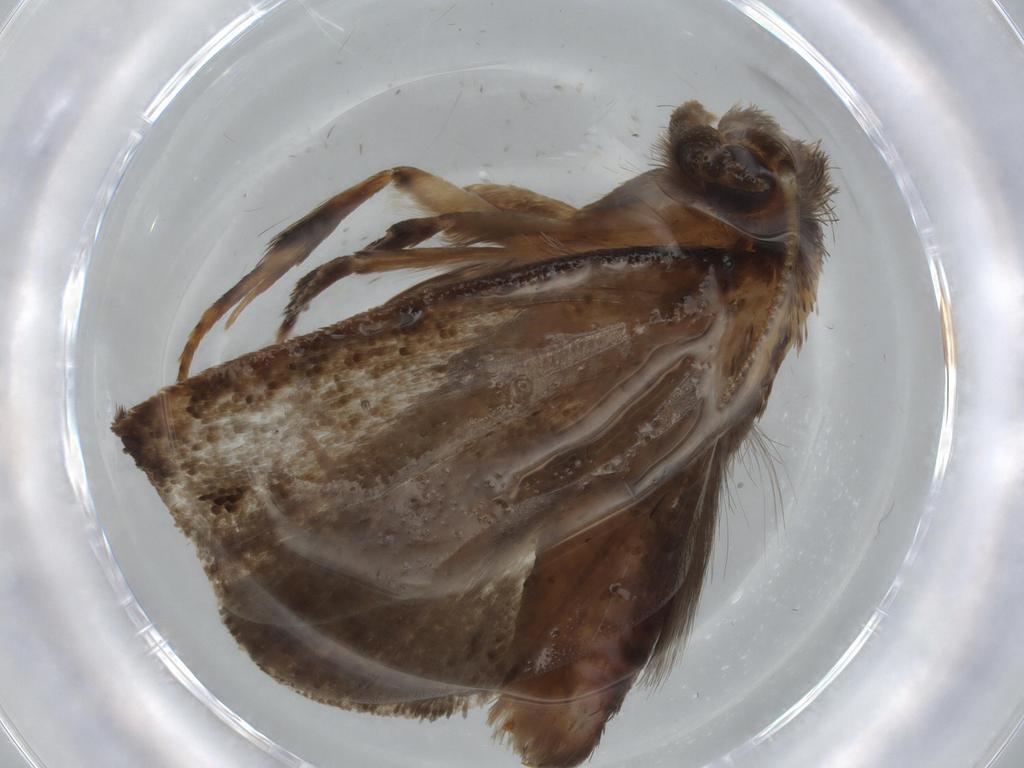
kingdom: Animalia
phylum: Arthropoda
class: Insecta
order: Lepidoptera
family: Tineidae
